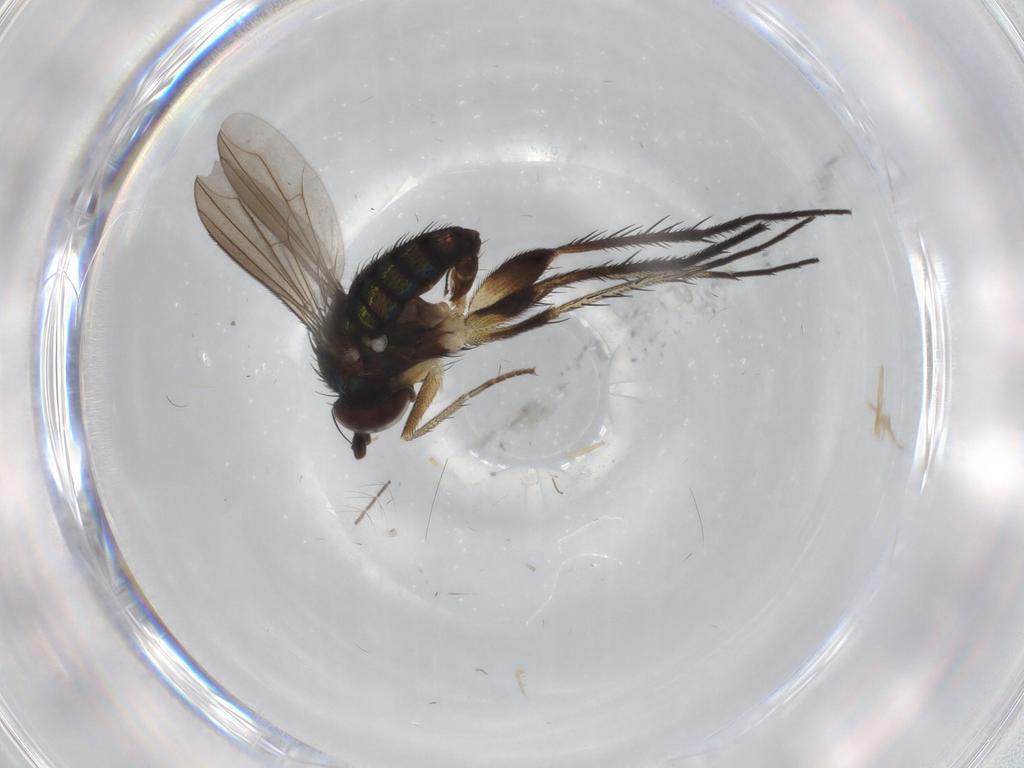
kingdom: Animalia
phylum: Arthropoda
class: Insecta
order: Diptera
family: Dolichopodidae
